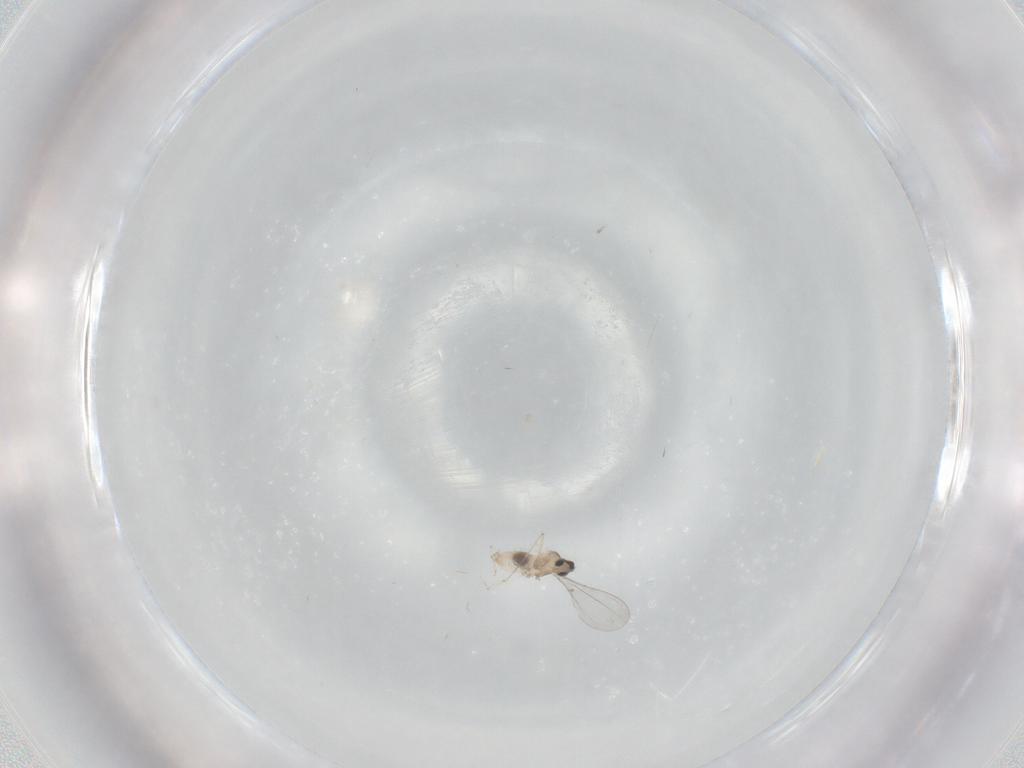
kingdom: Animalia
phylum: Arthropoda
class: Insecta
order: Diptera
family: Cecidomyiidae
